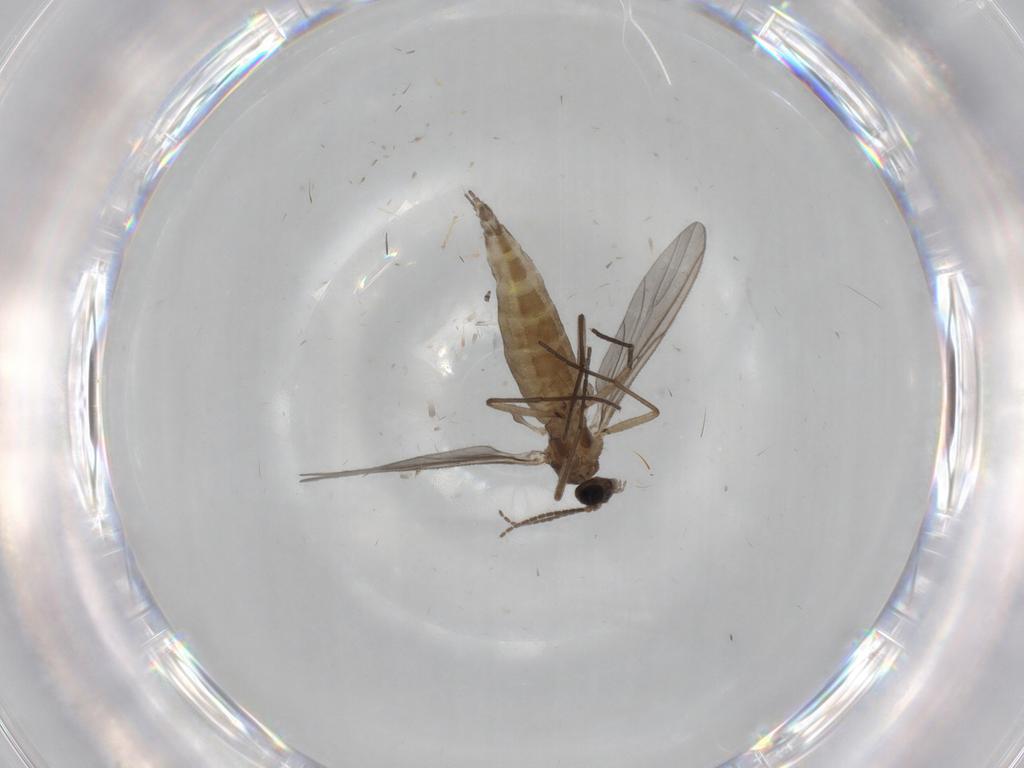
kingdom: Animalia
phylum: Arthropoda
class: Insecta
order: Diptera
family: Limoniidae
